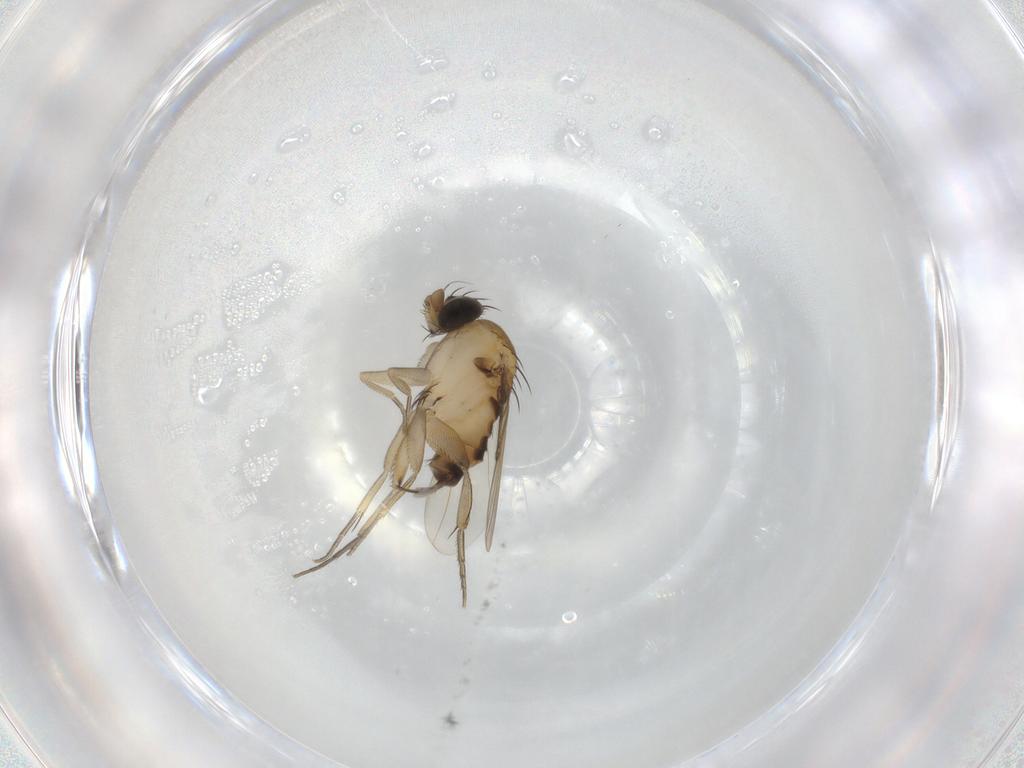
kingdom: Animalia
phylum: Arthropoda
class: Insecta
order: Diptera
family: Phoridae
